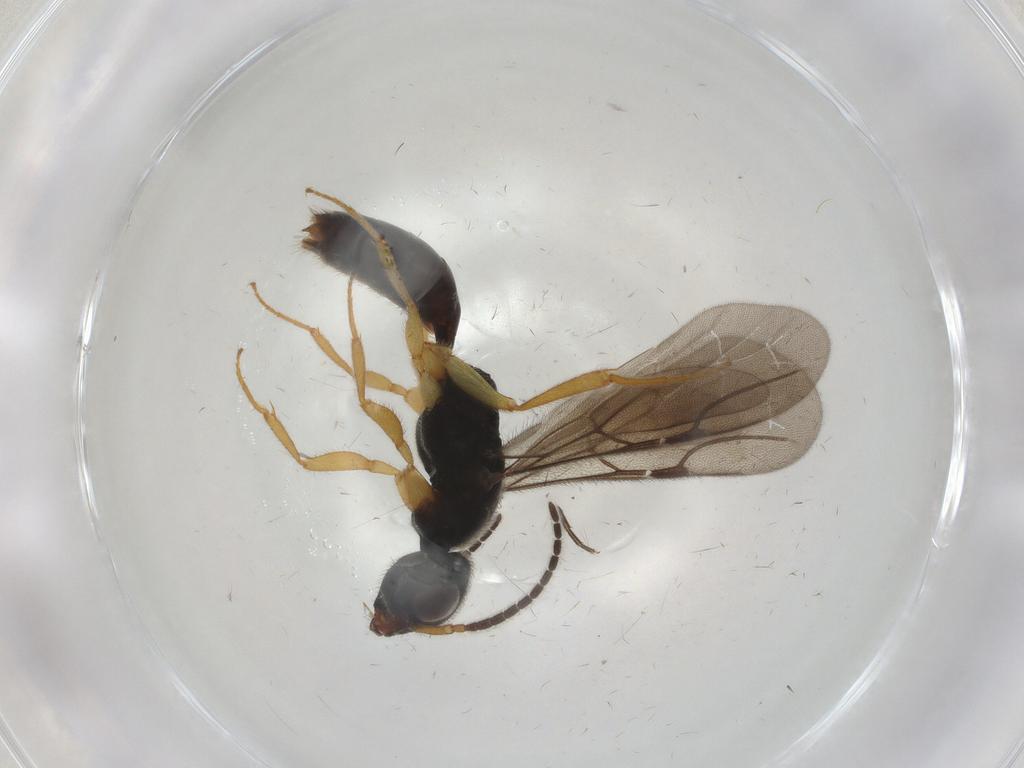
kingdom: Animalia
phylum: Arthropoda
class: Insecta
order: Hymenoptera
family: Bethylidae
